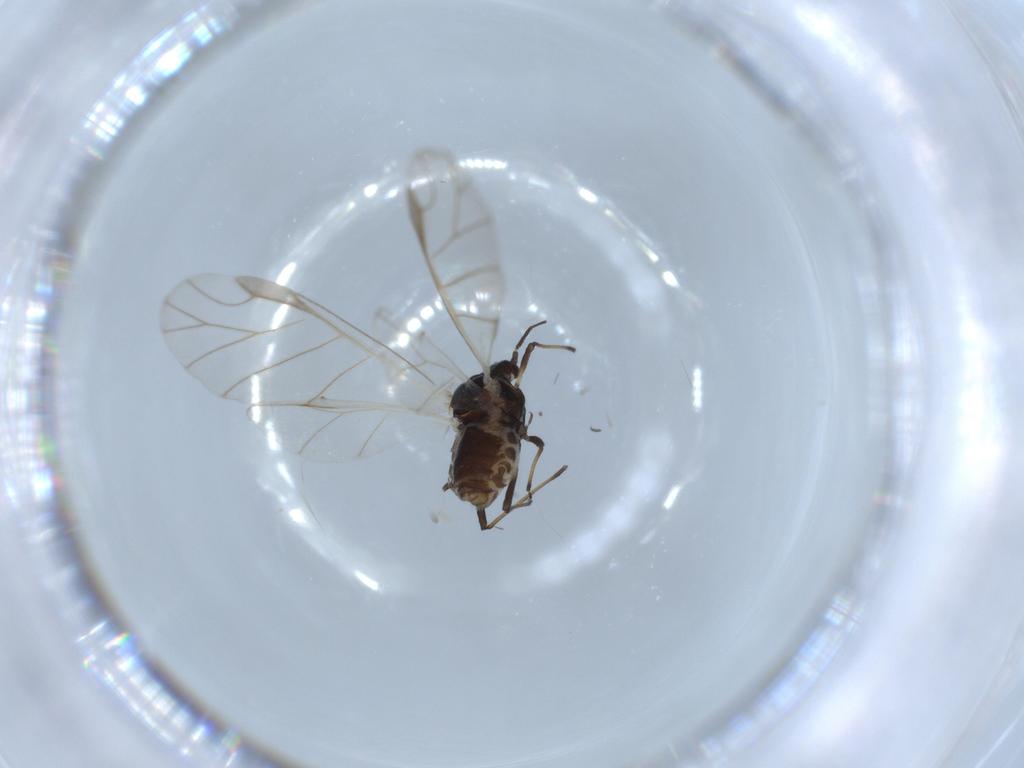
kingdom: Animalia
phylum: Arthropoda
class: Insecta
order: Hemiptera
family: Aphididae
